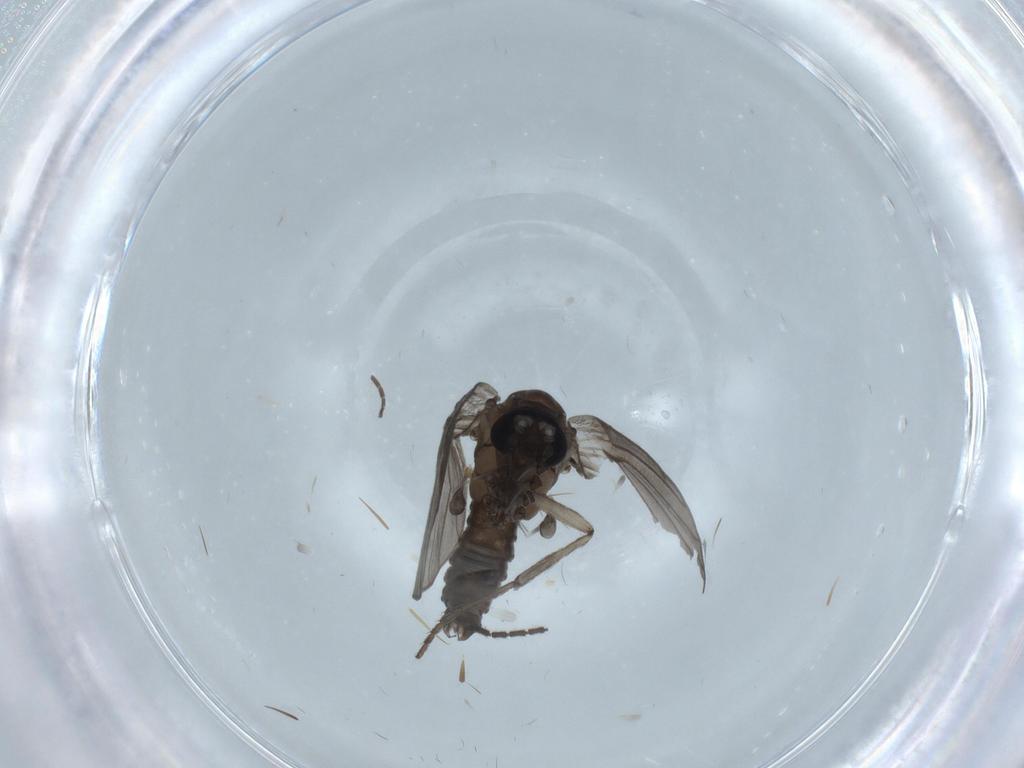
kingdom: Animalia
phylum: Arthropoda
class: Insecta
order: Diptera
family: Psychodidae
